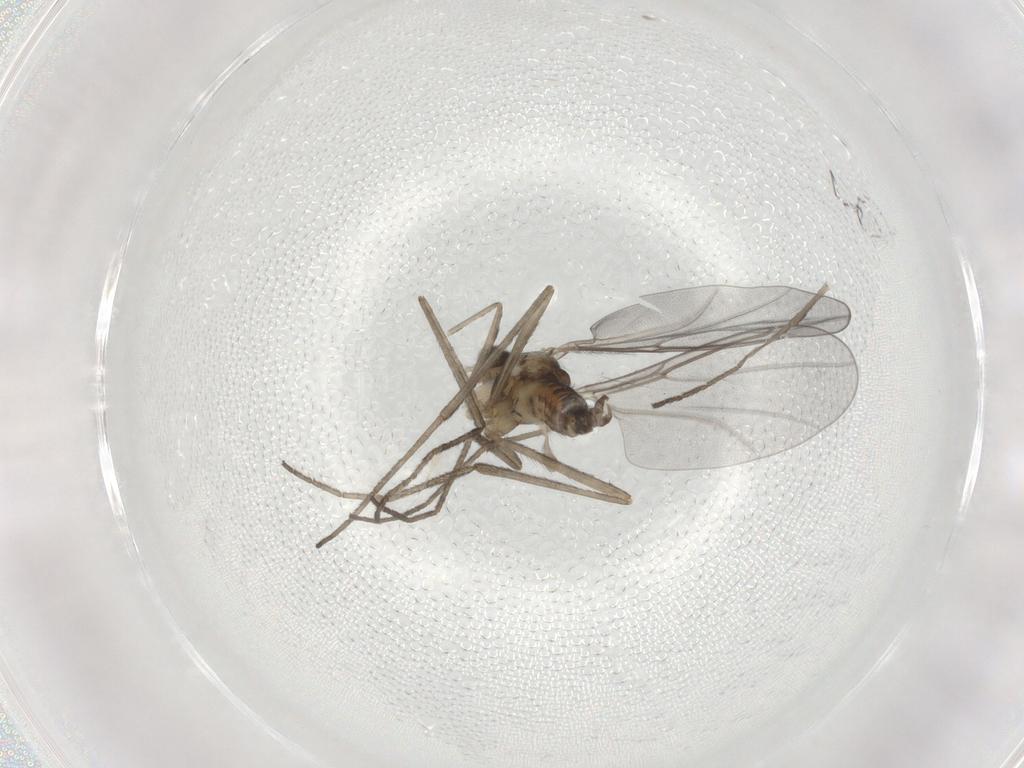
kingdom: Animalia
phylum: Arthropoda
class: Insecta
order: Diptera
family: Cecidomyiidae
